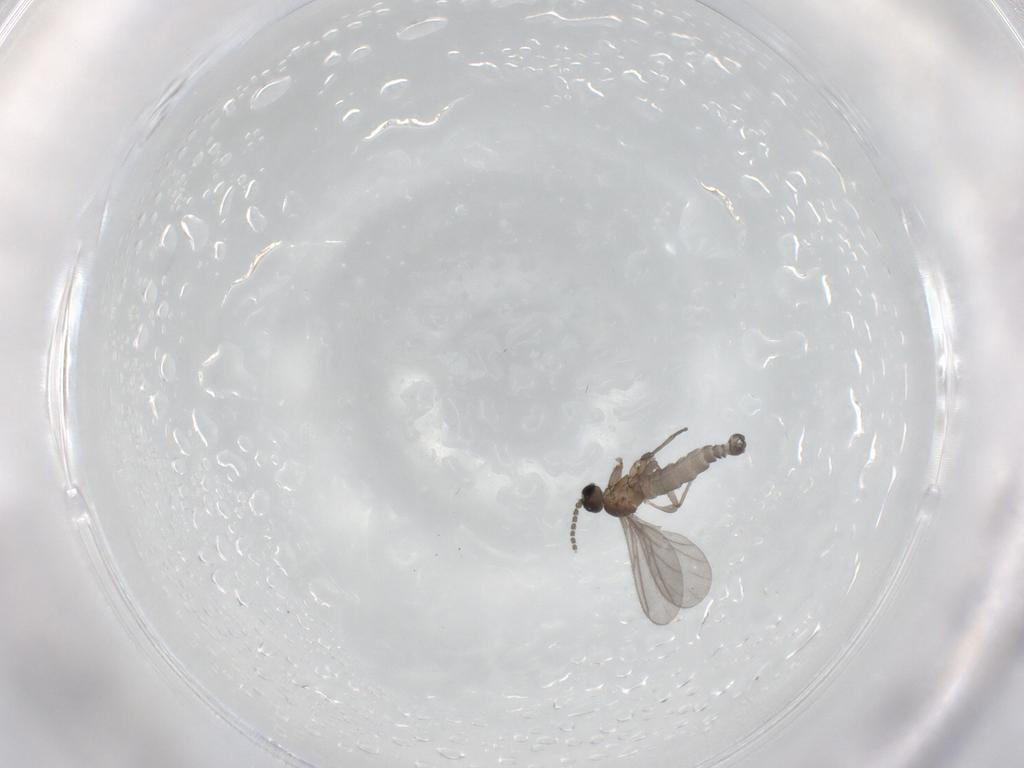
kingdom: Animalia
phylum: Arthropoda
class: Insecta
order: Diptera
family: Sciaridae
